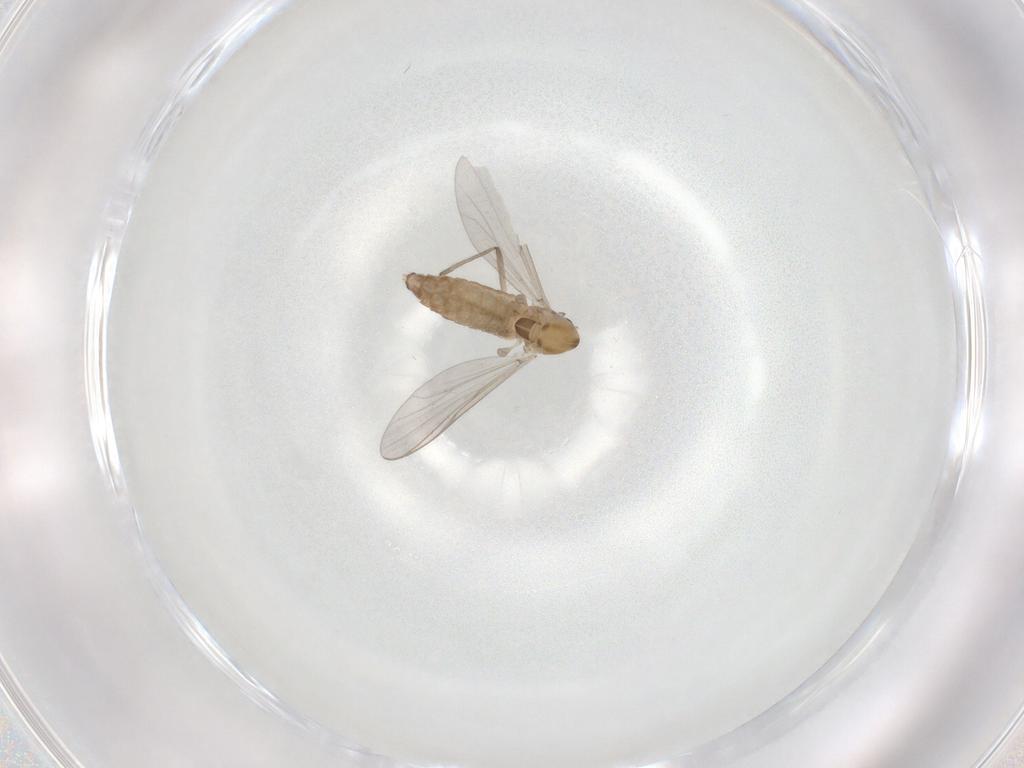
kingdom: Animalia
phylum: Arthropoda
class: Insecta
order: Diptera
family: Chironomidae
